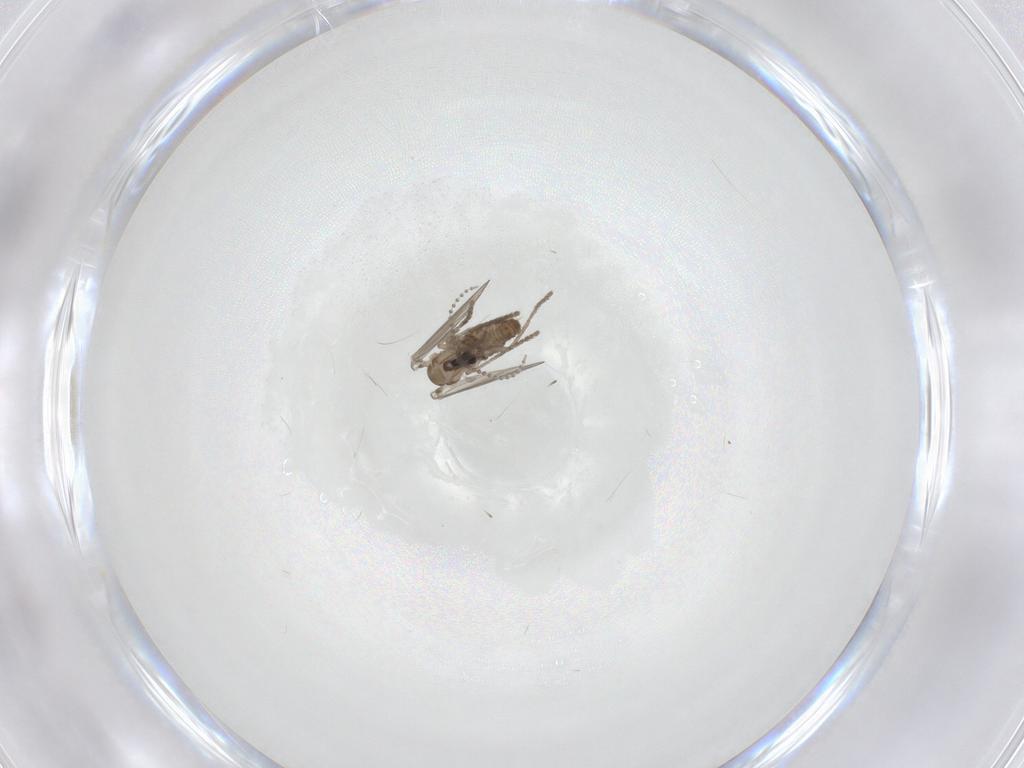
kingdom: Animalia
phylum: Arthropoda
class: Insecta
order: Diptera
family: Psychodidae
